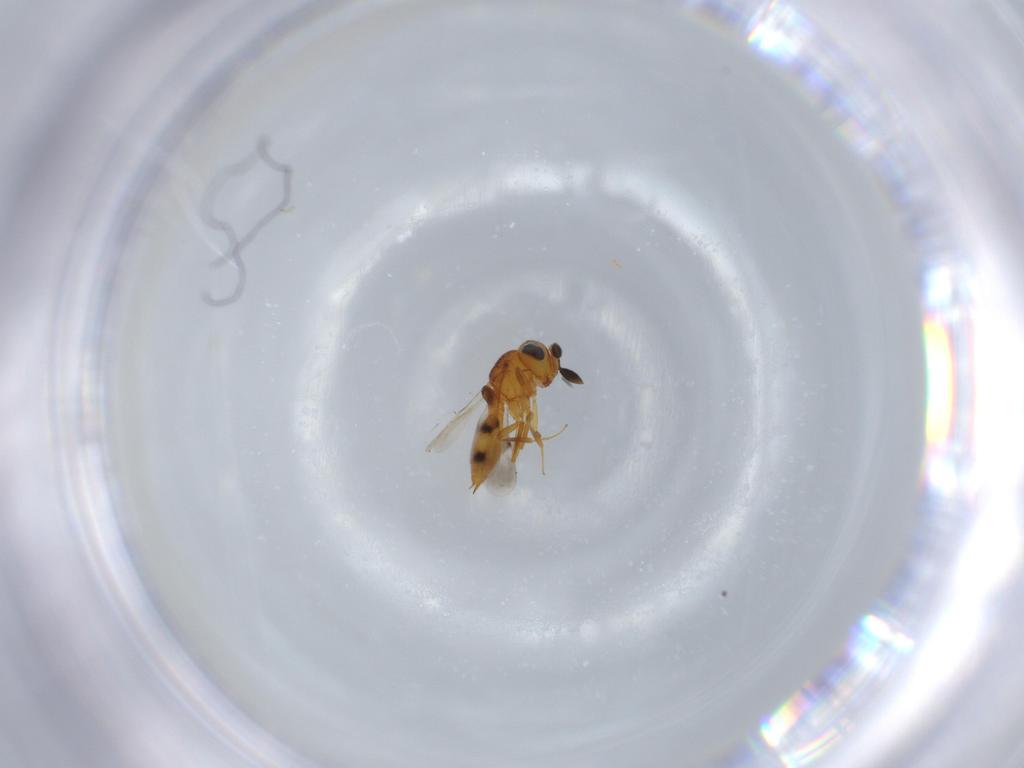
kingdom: Animalia
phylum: Arthropoda
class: Insecta
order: Hymenoptera
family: Scelionidae
